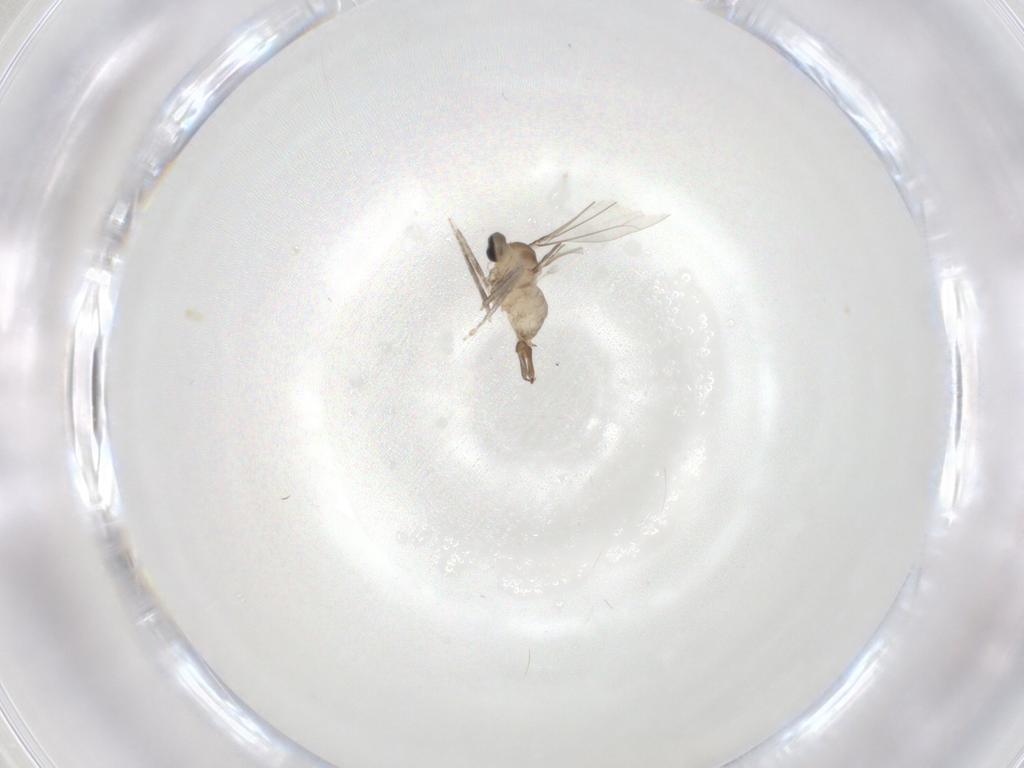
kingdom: Animalia
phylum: Arthropoda
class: Insecta
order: Diptera
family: Cecidomyiidae
